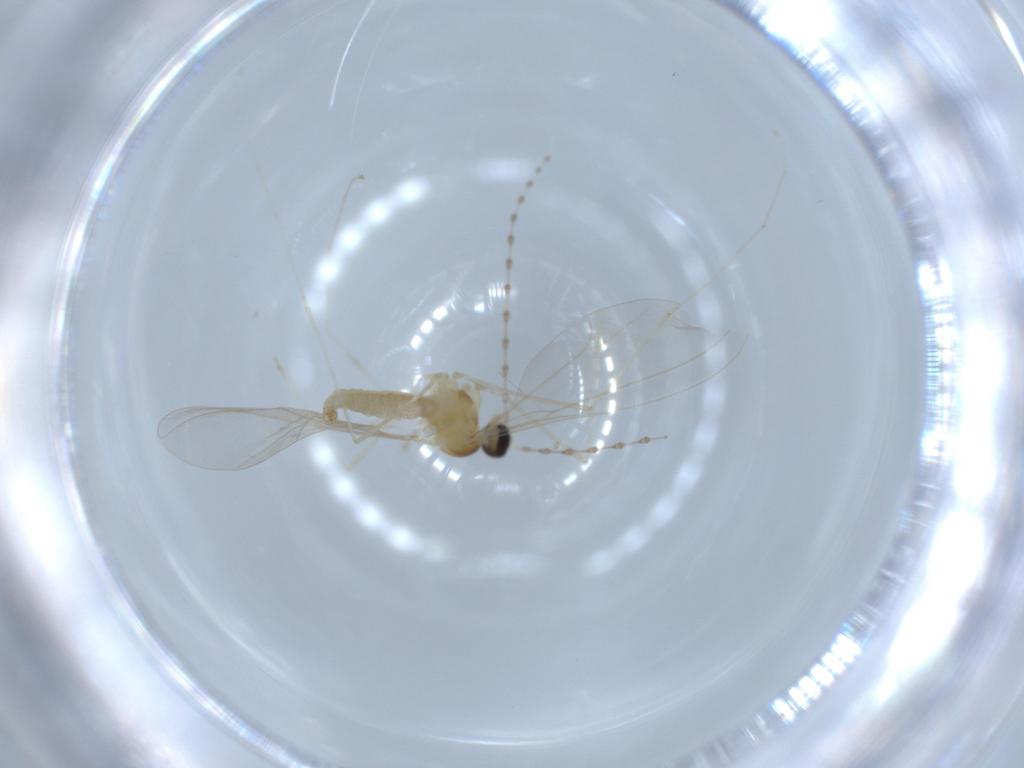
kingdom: Animalia
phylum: Arthropoda
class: Insecta
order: Diptera
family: Cecidomyiidae
